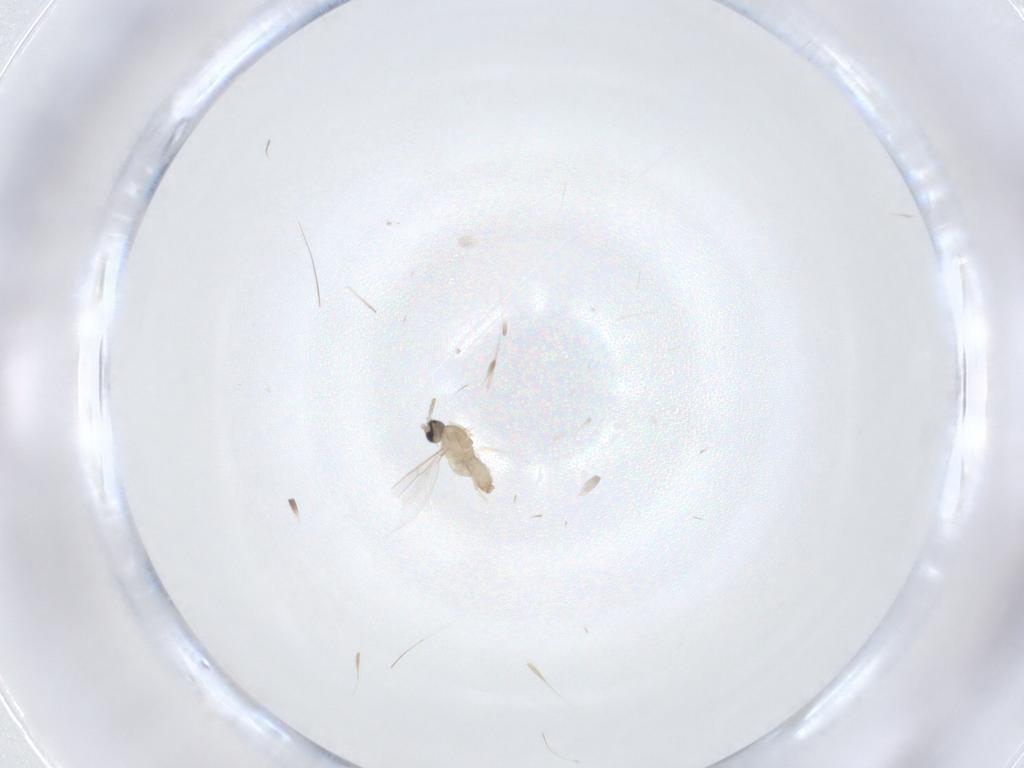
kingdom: Animalia
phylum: Arthropoda
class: Insecta
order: Diptera
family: Cecidomyiidae
